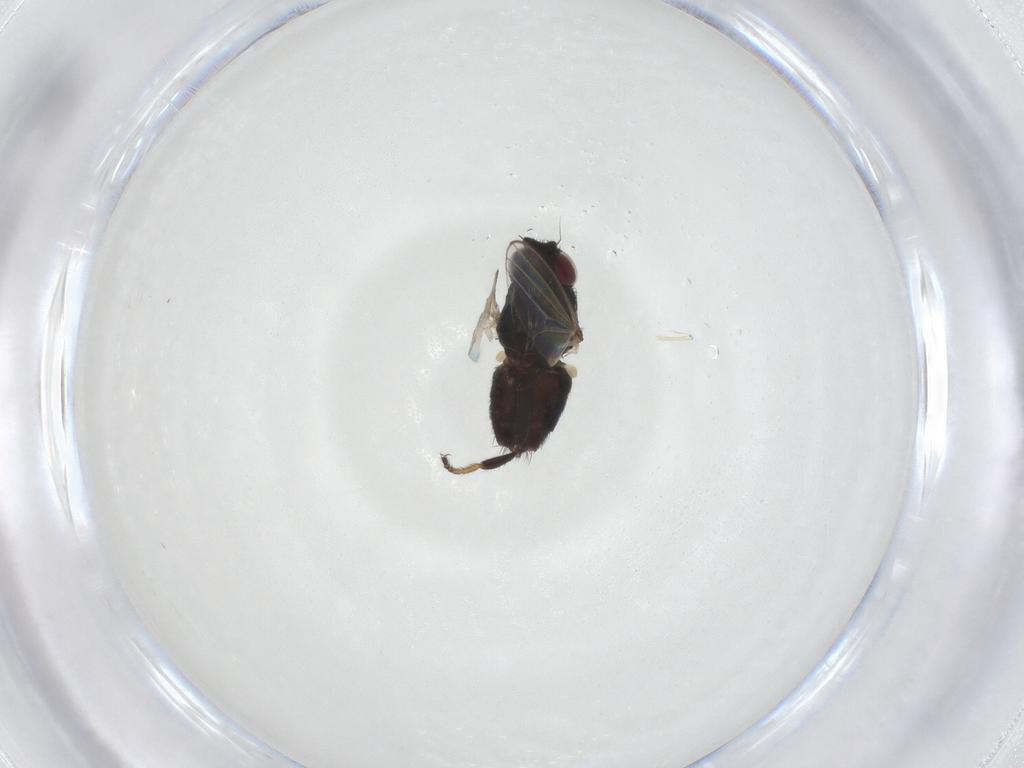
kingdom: Animalia
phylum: Arthropoda
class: Insecta
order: Diptera
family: Milichiidae
